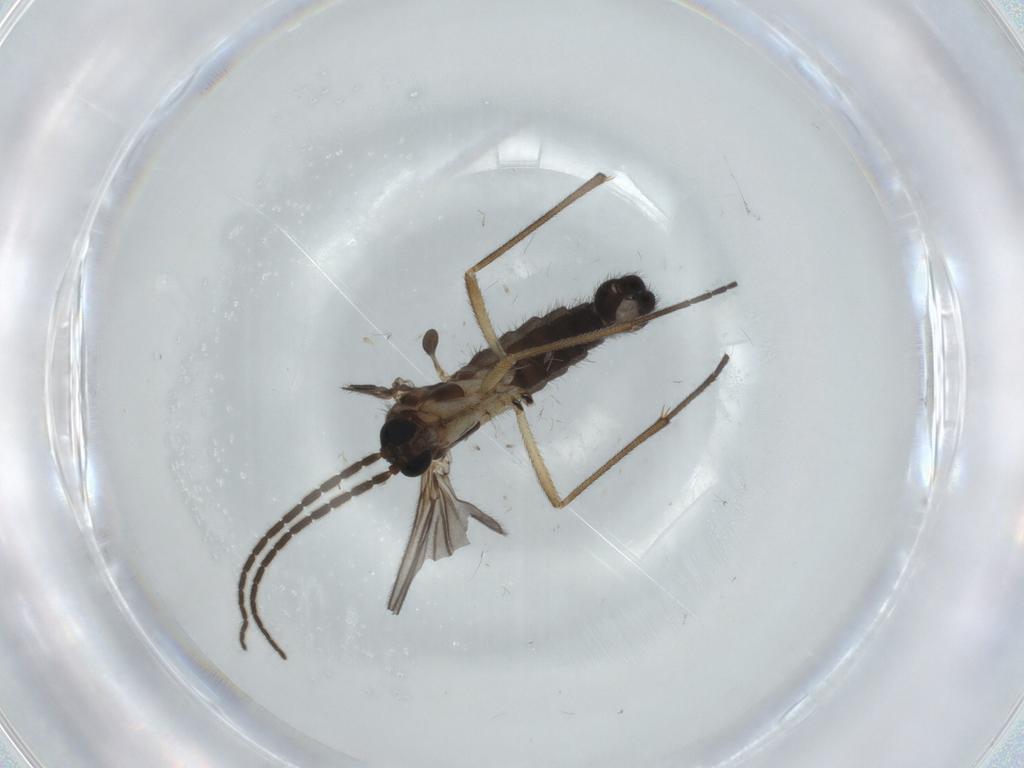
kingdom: Animalia
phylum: Arthropoda
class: Insecta
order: Diptera
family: Sciaridae
